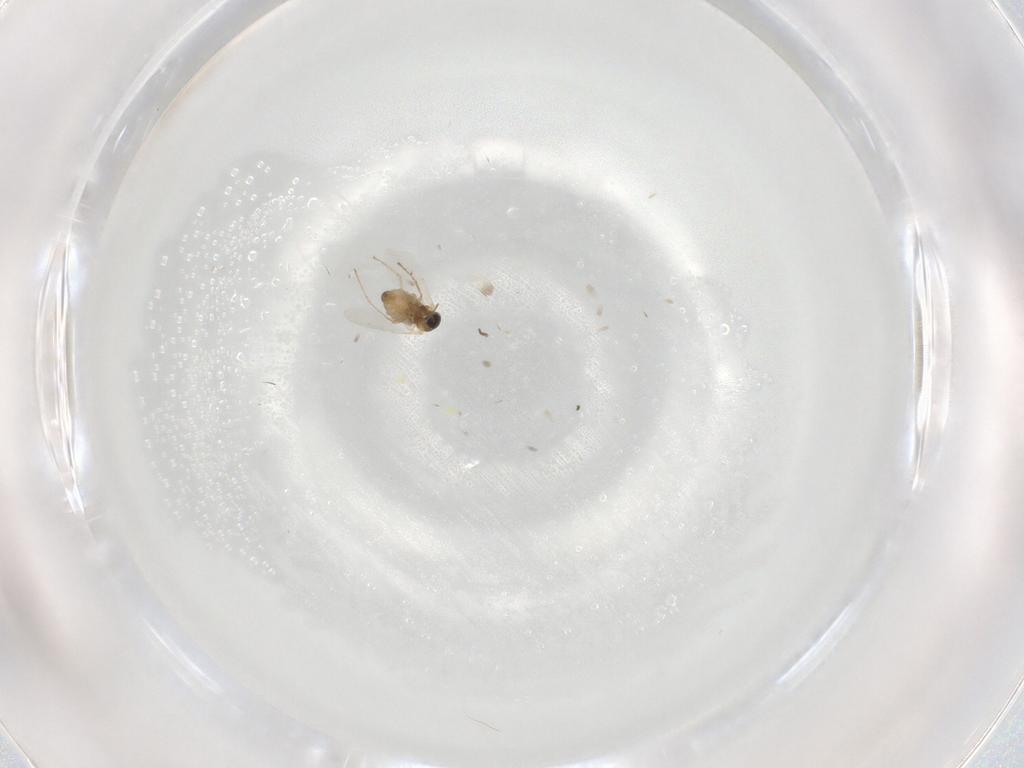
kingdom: Animalia
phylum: Arthropoda
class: Insecta
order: Diptera
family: Cecidomyiidae
